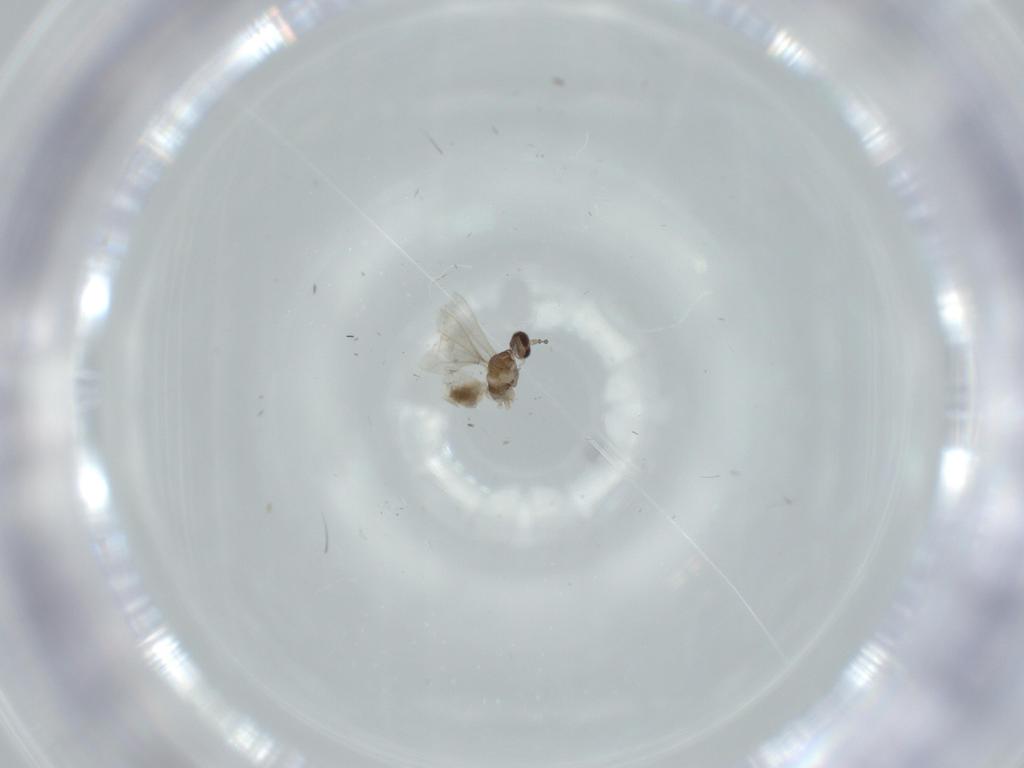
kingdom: Animalia
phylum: Arthropoda
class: Insecta
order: Diptera
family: Cecidomyiidae
